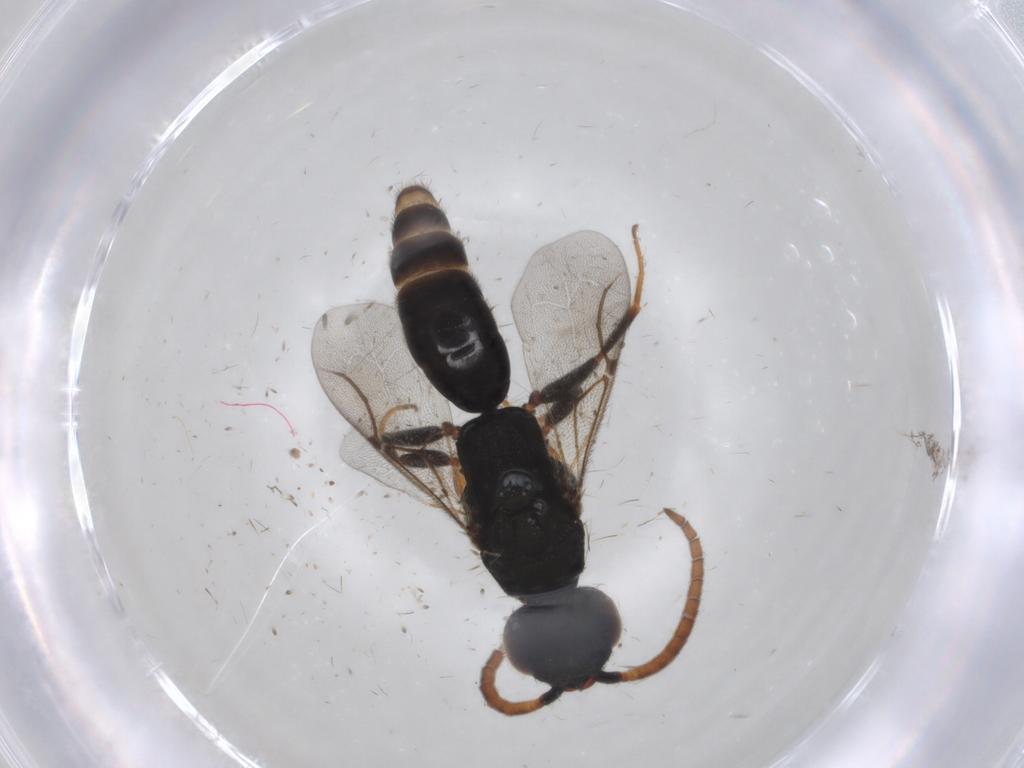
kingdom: Animalia
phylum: Arthropoda
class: Insecta
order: Hymenoptera
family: Bethylidae
